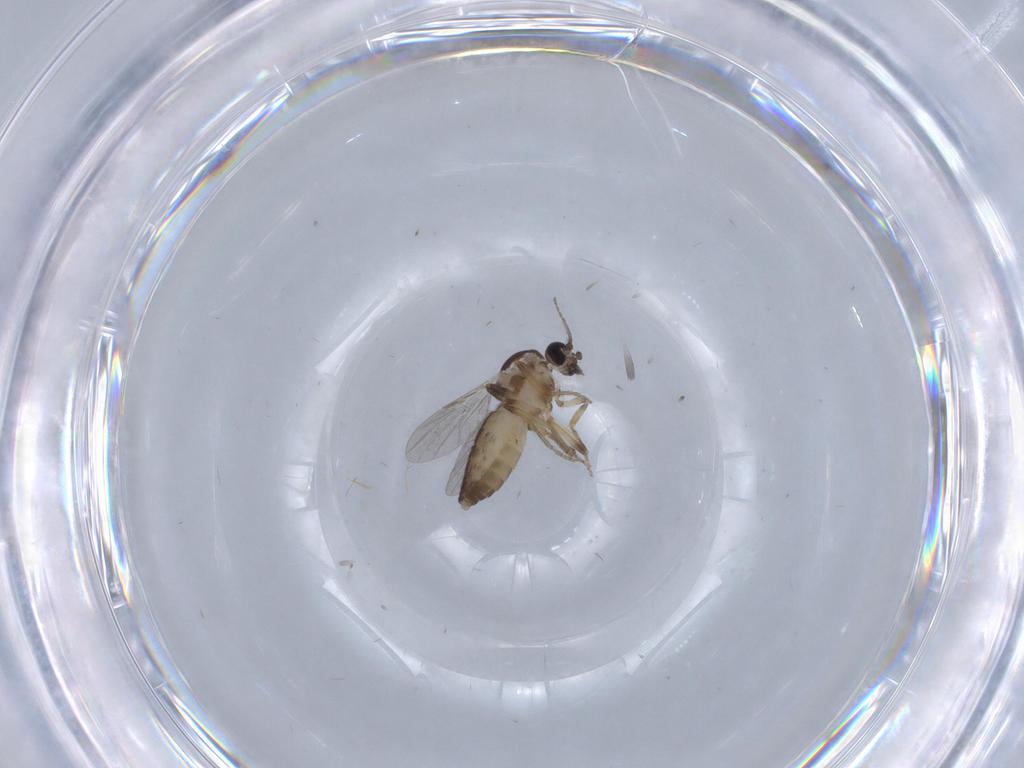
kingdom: Animalia
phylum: Arthropoda
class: Insecta
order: Diptera
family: Ceratopogonidae
